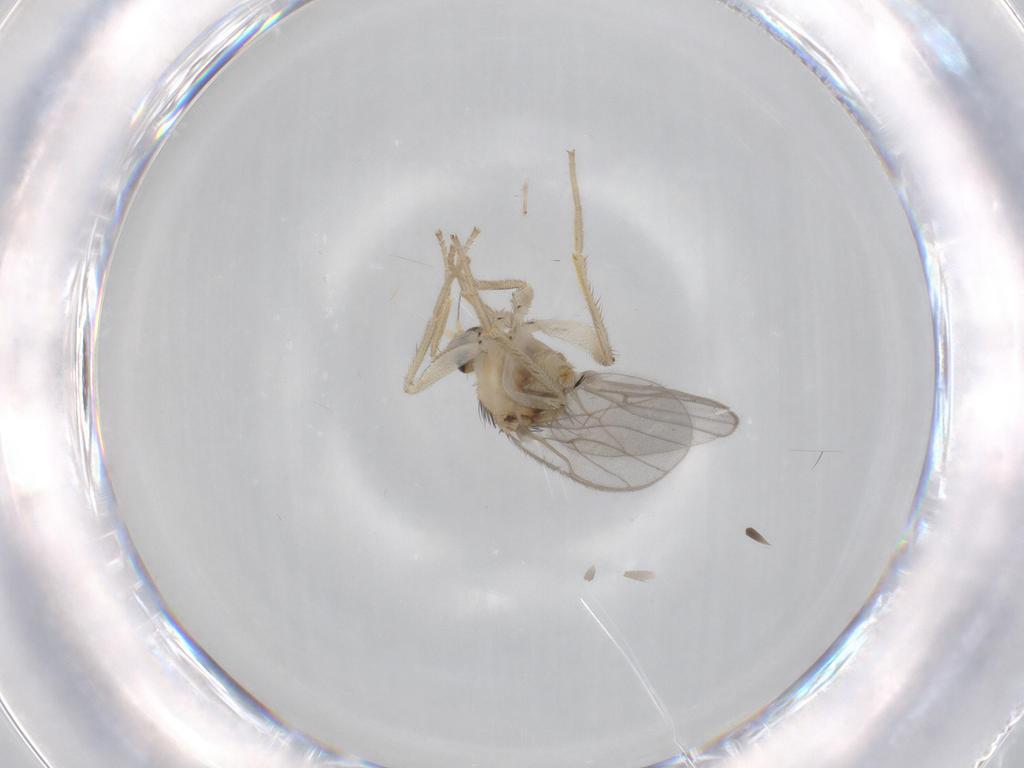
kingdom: Animalia
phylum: Arthropoda
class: Insecta
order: Diptera
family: Hybotidae
